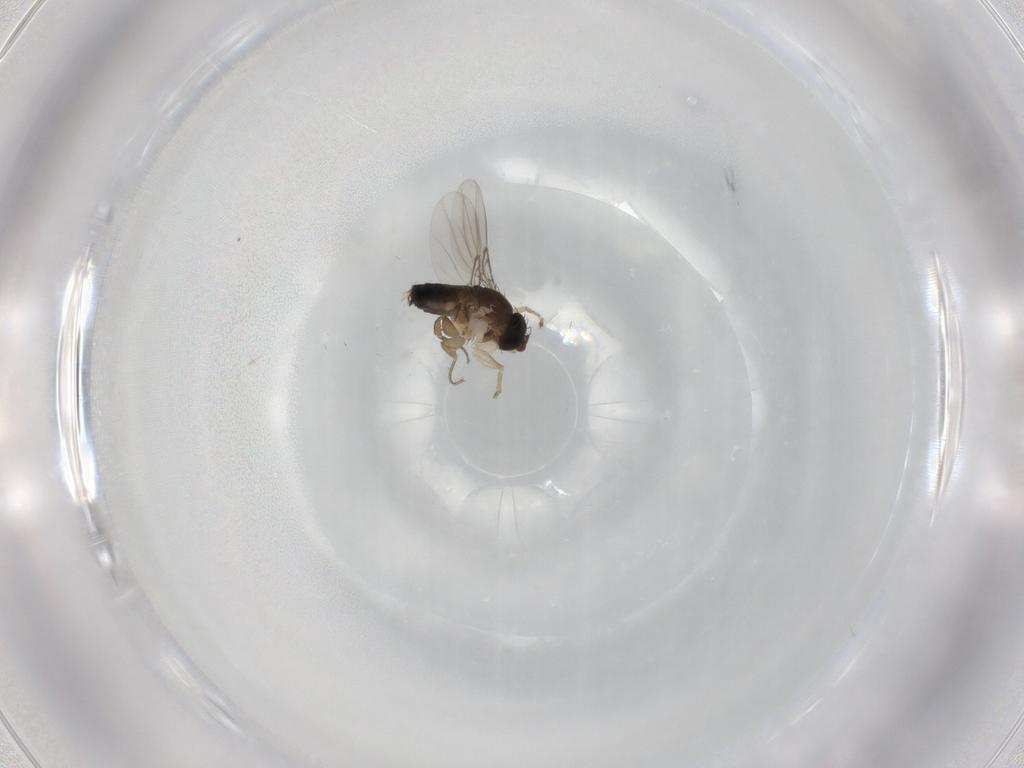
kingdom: Animalia
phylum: Arthropoda
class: Insecta
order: Diptera
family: Phoridae
